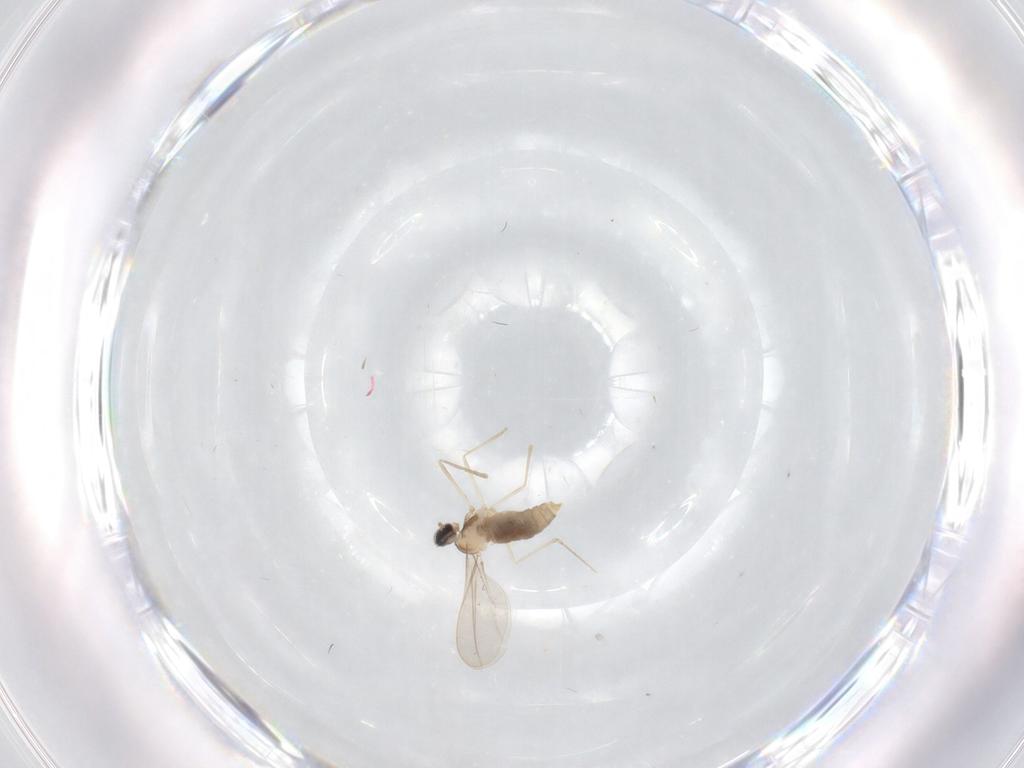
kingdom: Animalia
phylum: Arthropoda
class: Insecta
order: Diptera
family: Cecidomyiidae
